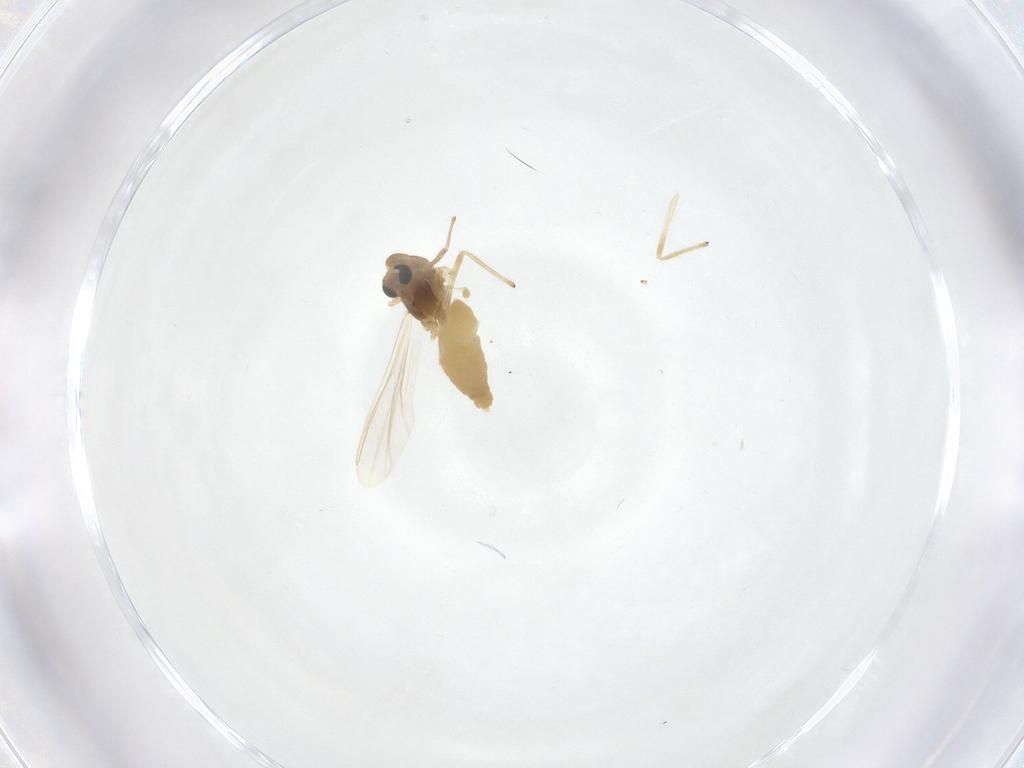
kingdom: Animalia
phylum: Arthropoda
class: Insecta
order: Diptera
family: Chironomidae
